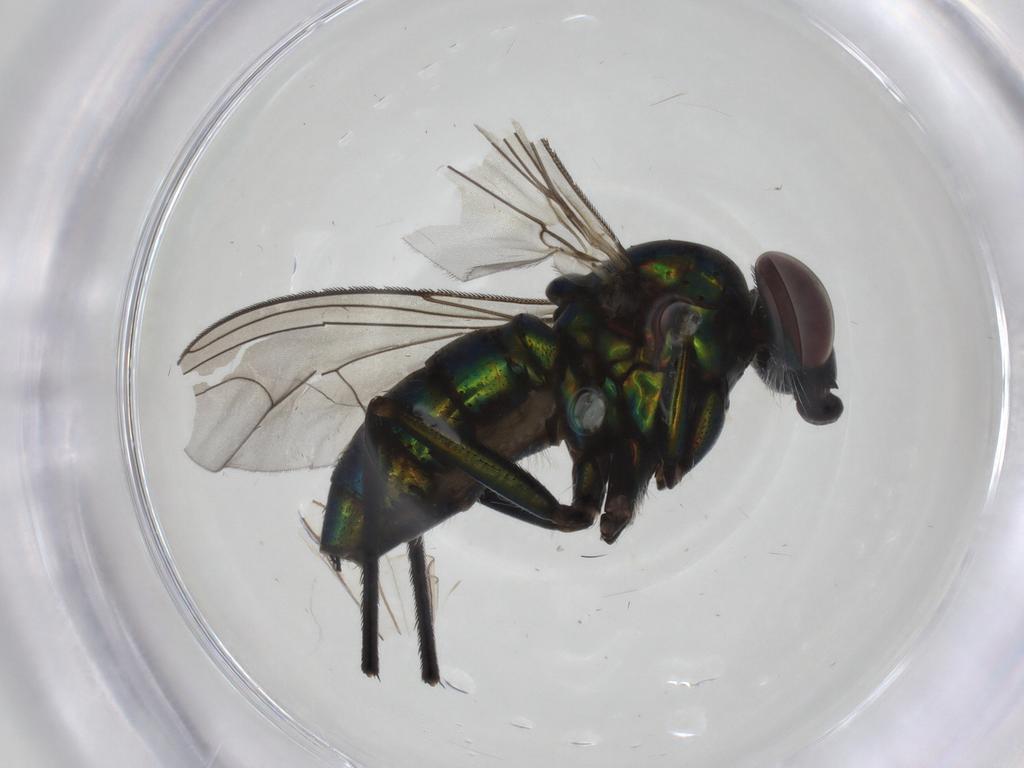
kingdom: Animalia
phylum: Arthropoda
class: Insecta
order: Diptera
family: Dolichopodidae
